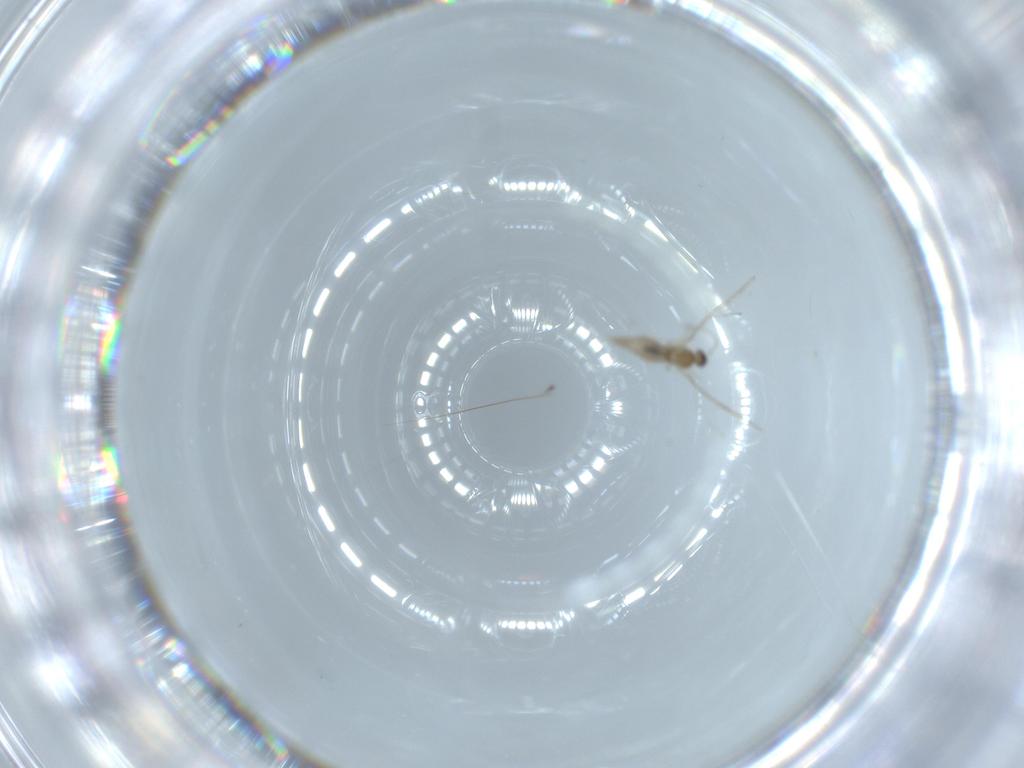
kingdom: Animalia
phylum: Arthropoda
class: Insecta
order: Diptera
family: Cecidomyiidae
